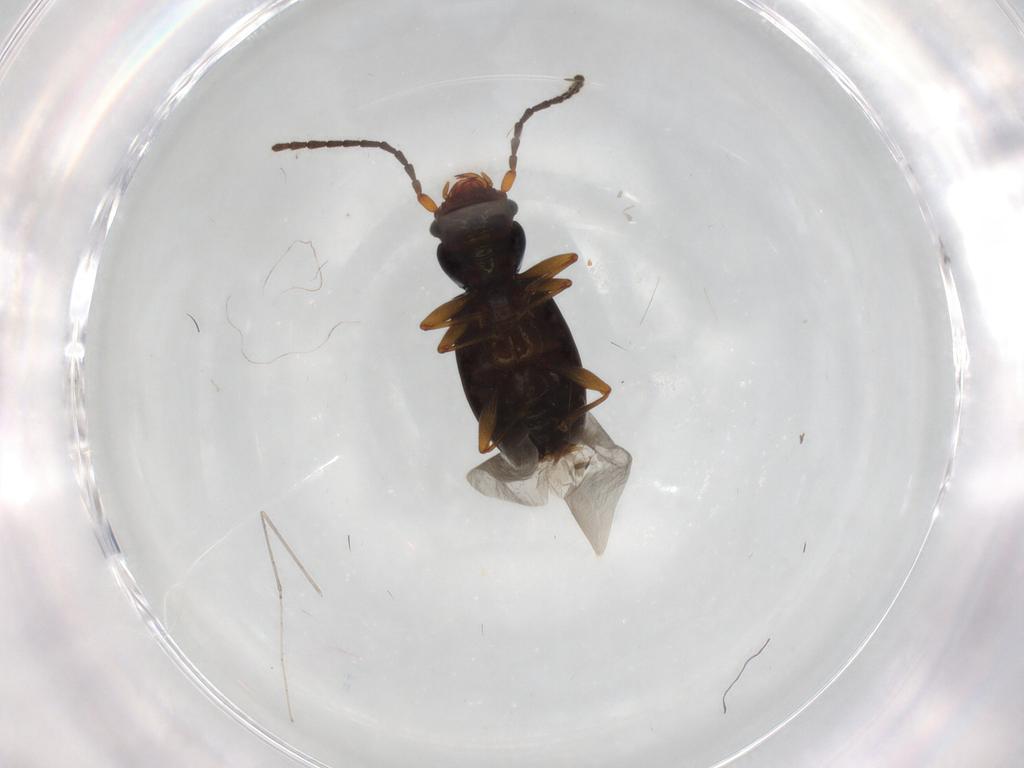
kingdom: Animalia
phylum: Arthropoda
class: Insecta
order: Coleoptera
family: Laemophloeidae
